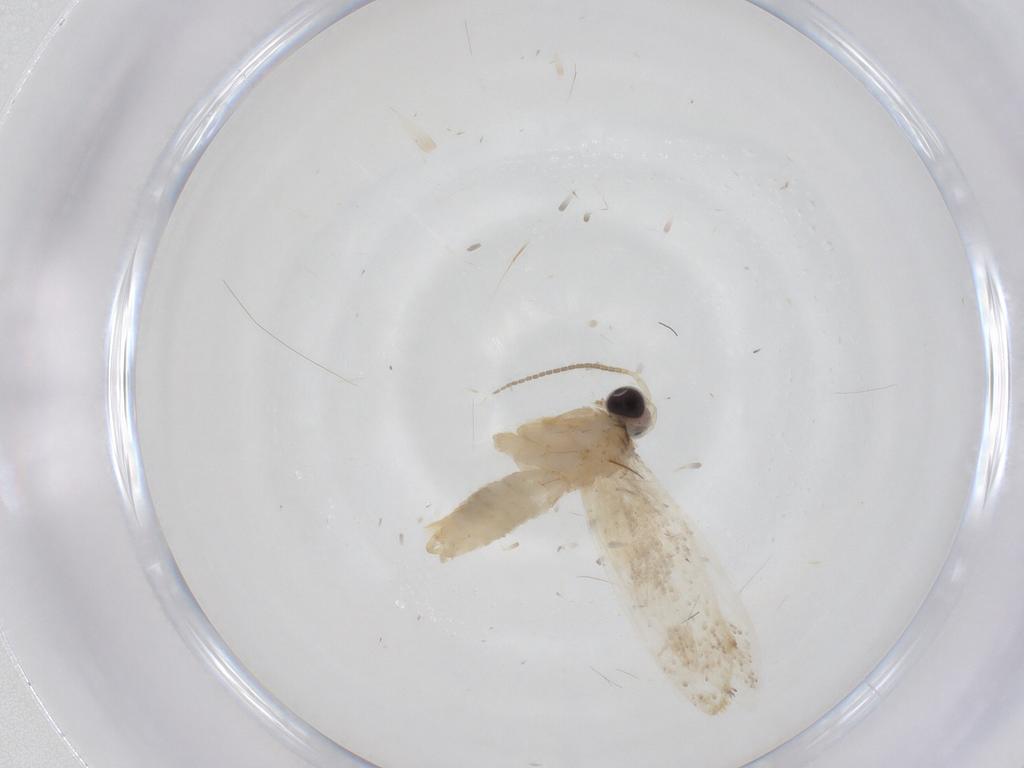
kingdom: Animalia
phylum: Arthropoda
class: Insecta
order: Lepidoptera
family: Psychidae
